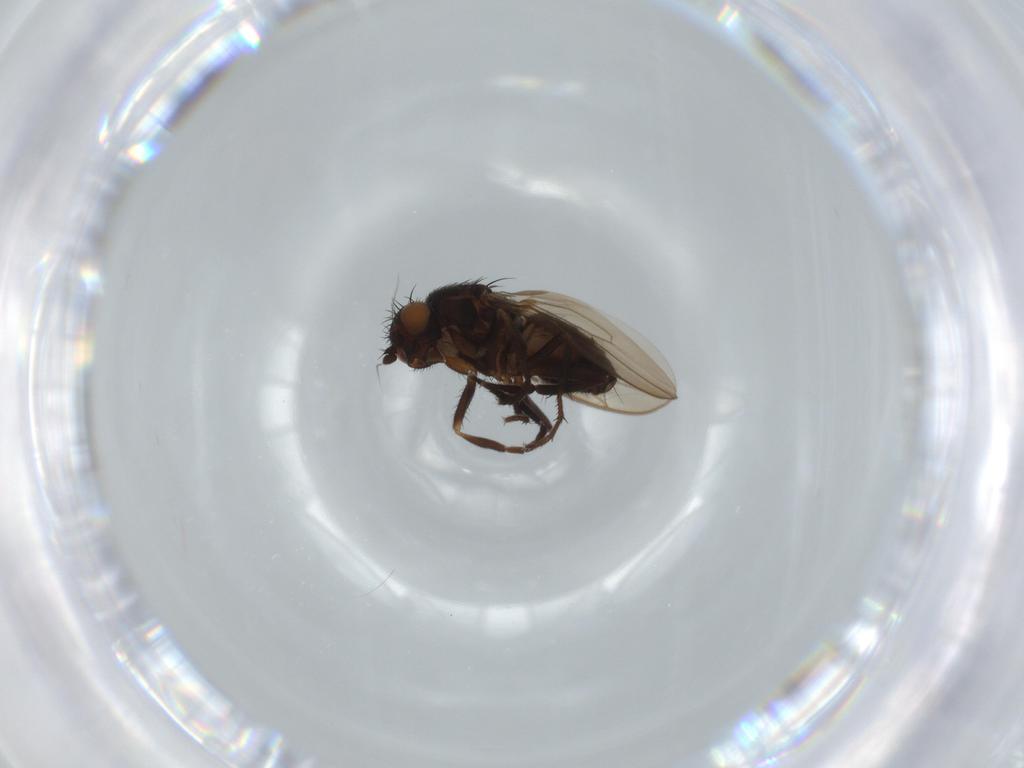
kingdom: Animalia
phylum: Arthropoda
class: Insecta
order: Diptera
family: Sphaeroceridae
